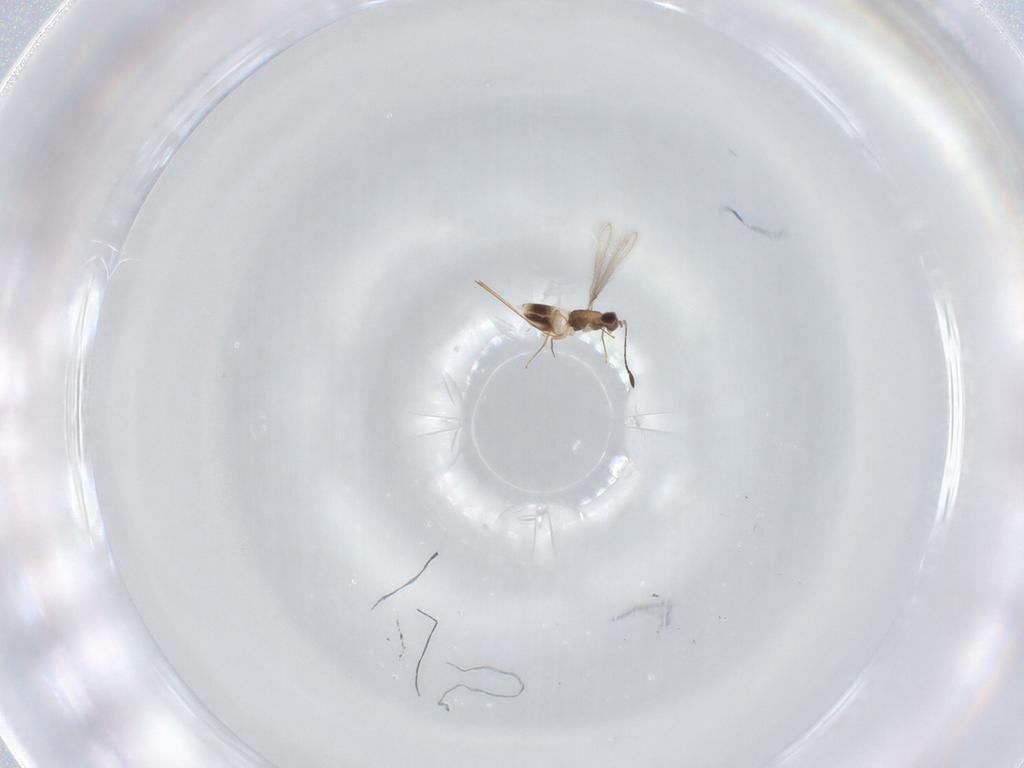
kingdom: Animalia
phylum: Arthropoda
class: Insecta
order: Hymenoptera
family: Mymaridae
